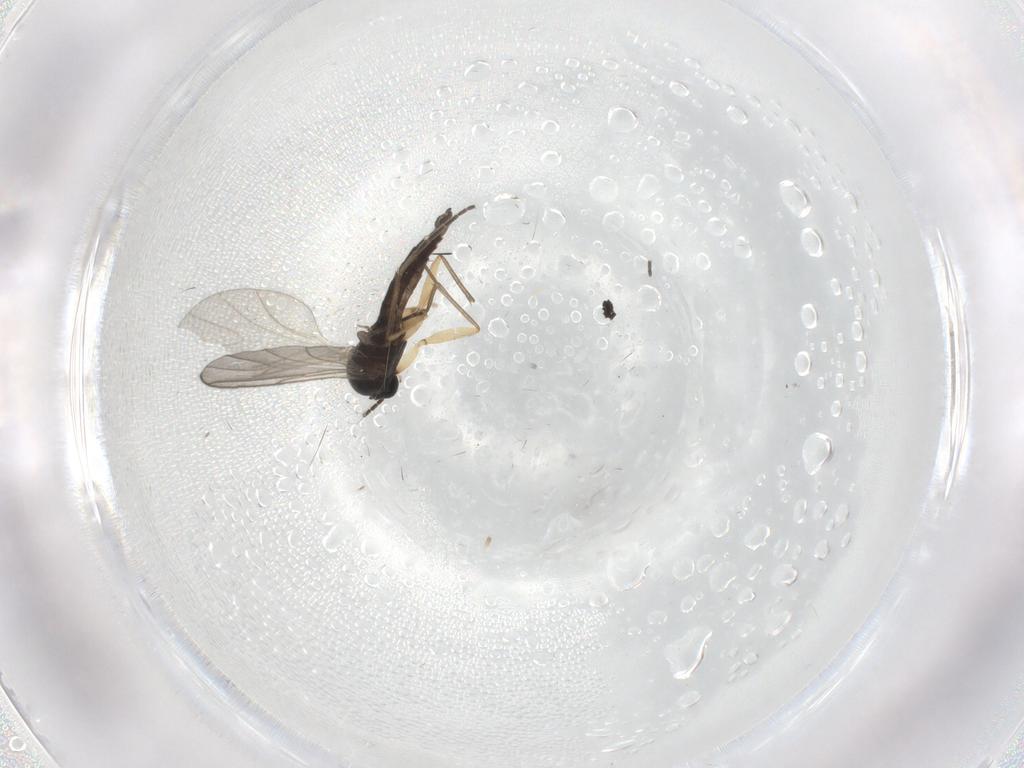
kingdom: Animalia
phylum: Arthropoda
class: Insecta
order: Diptera
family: Sciaridae
